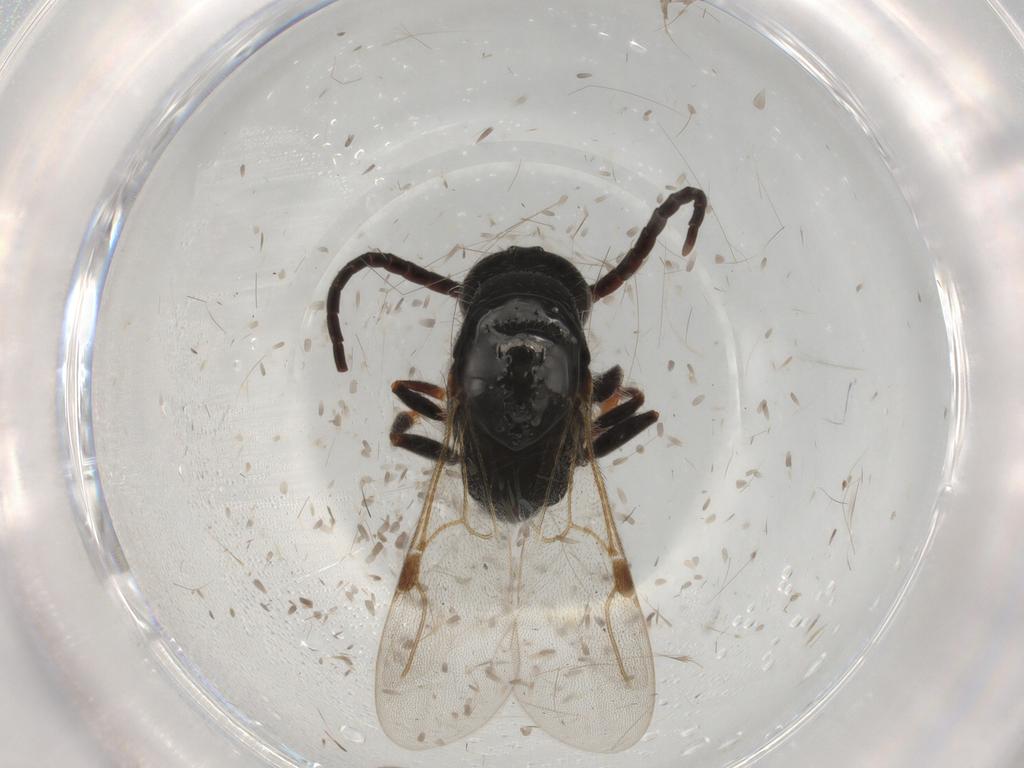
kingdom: Animalia
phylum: Arthropoda
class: Insecta
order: Hymenoptera
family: Bethylidae
